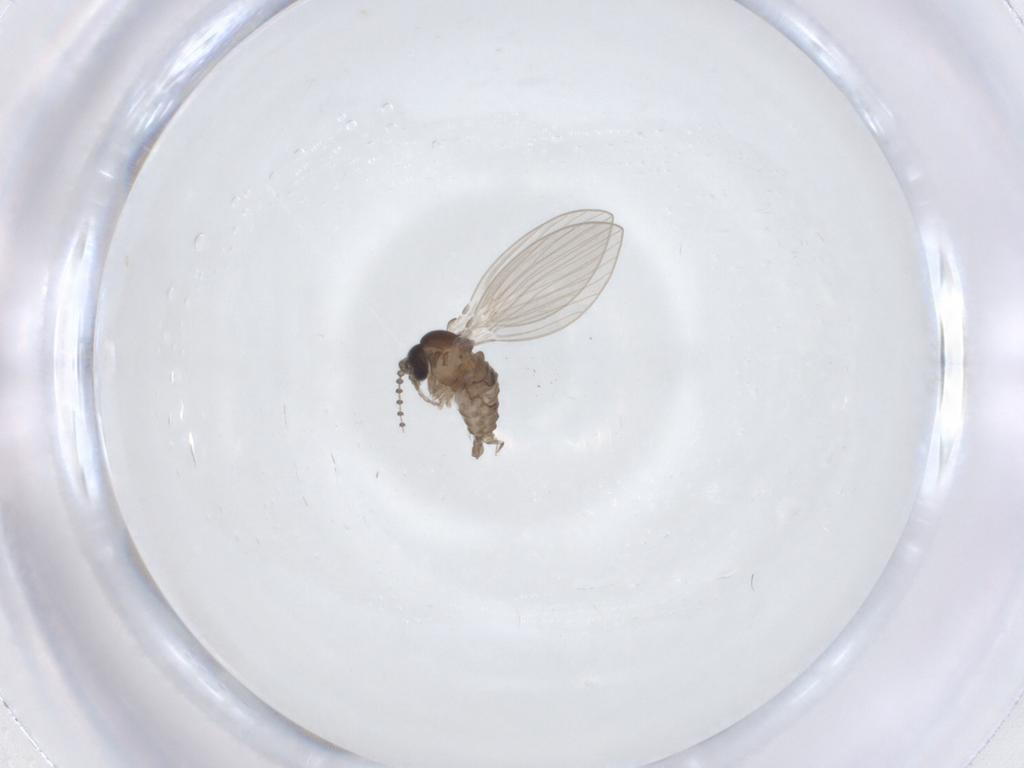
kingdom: Animalia
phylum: Arthropoda
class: Insecta
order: Diptera
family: Psychodidae
